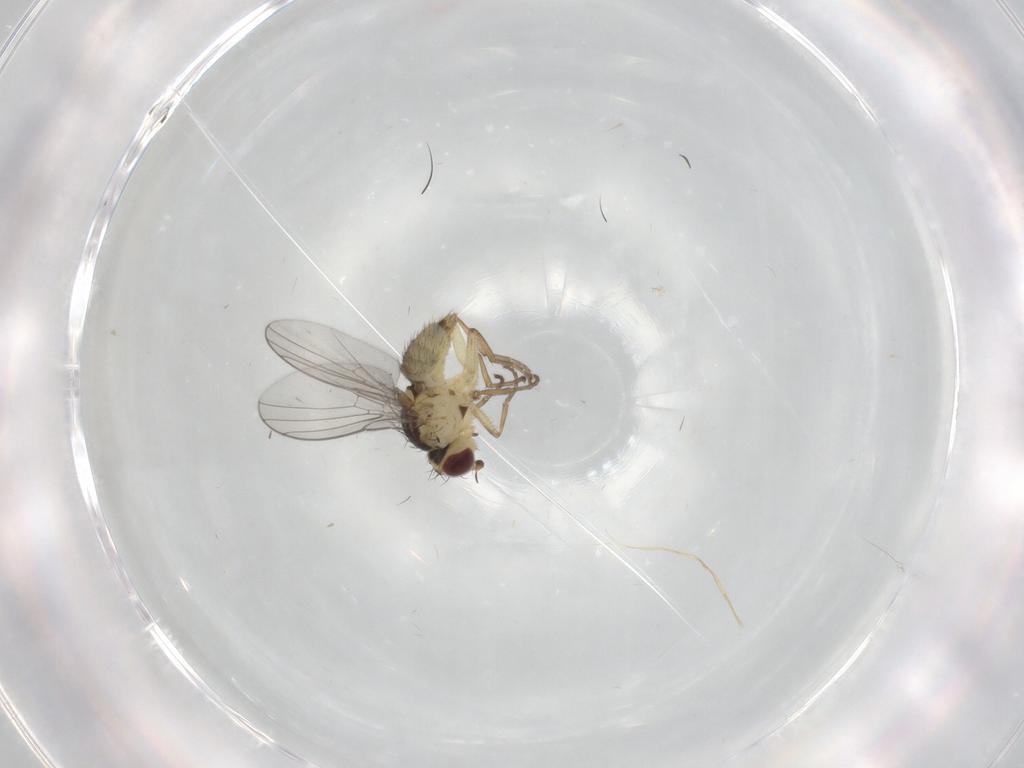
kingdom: Animalia
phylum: Arthropoda
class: Insecta
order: Diptera
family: Agromyzidae
